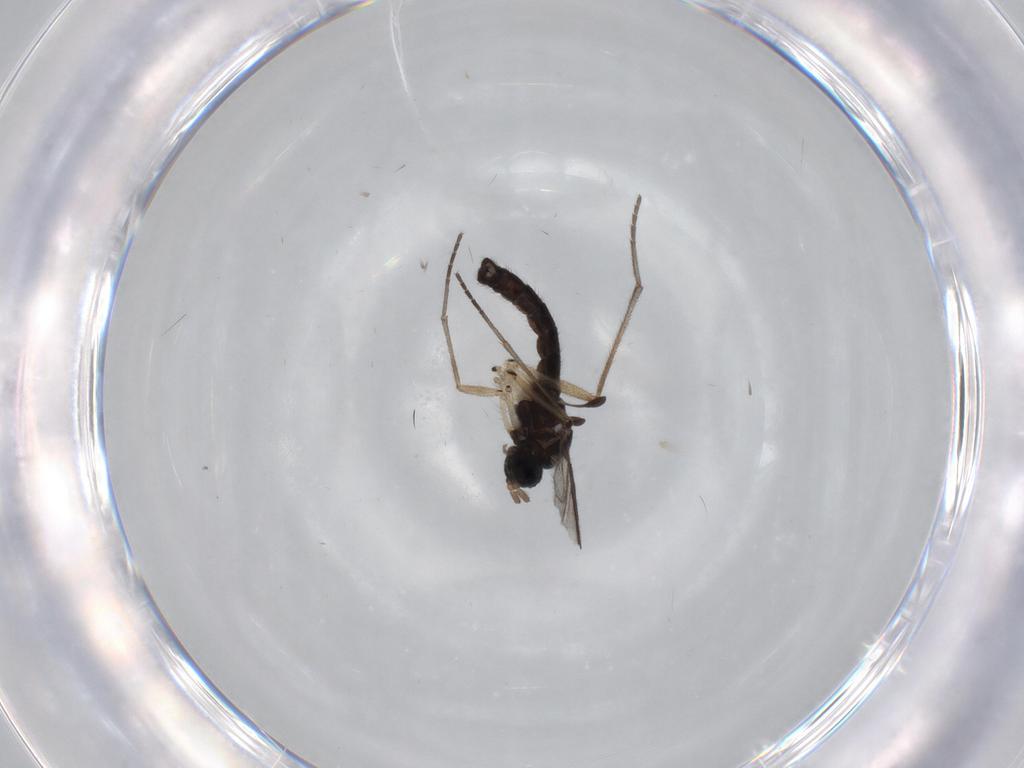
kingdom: Animalia
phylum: Arthropoda
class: Insecta
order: Diptera
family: Sciaridae
